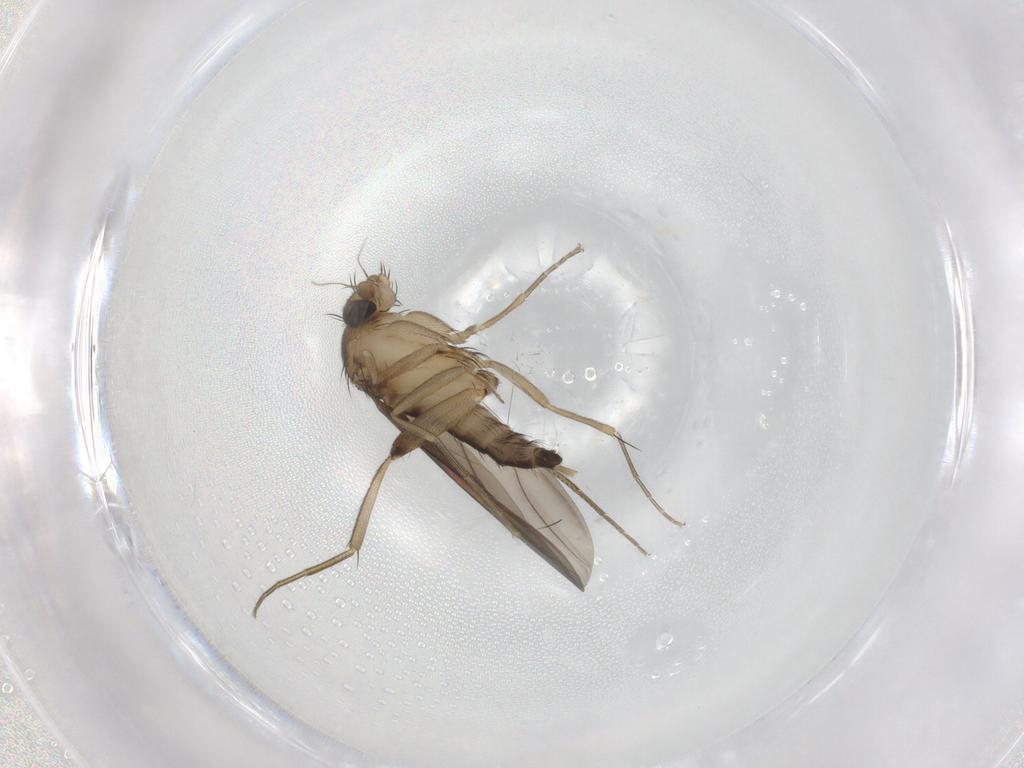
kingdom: Animalia
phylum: Arthropoda
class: Insecta
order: Diptera
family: Phoridae
